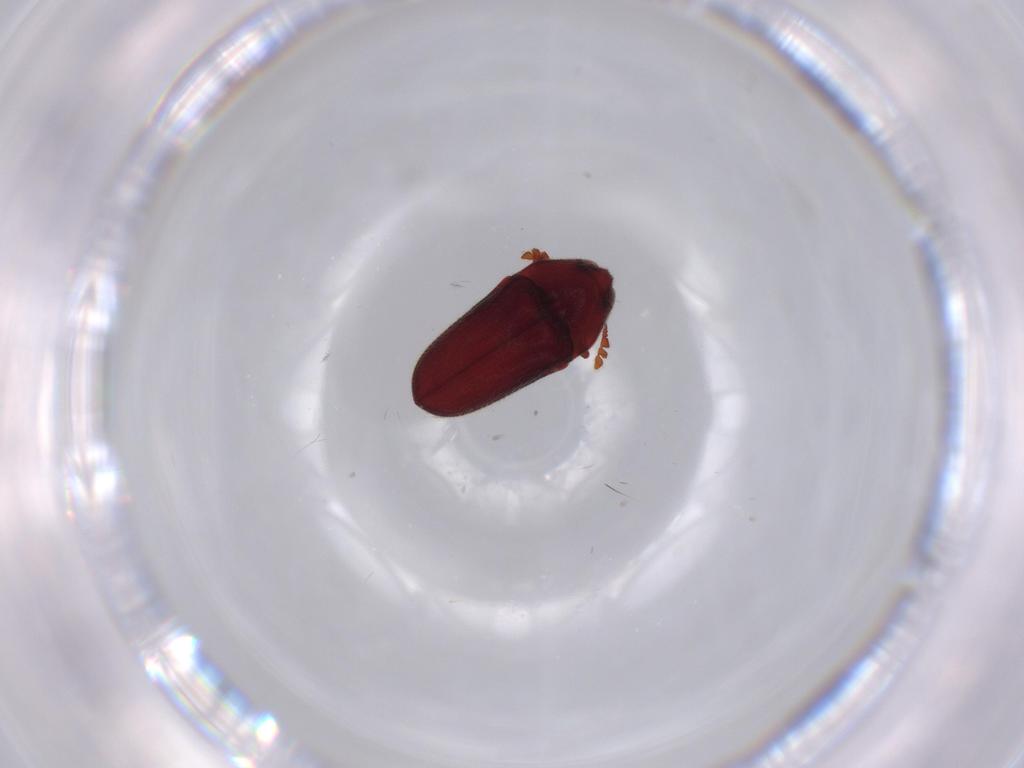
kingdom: Animalia
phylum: Arthropoda
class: Insecta
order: Coleoptera
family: Throscidae
